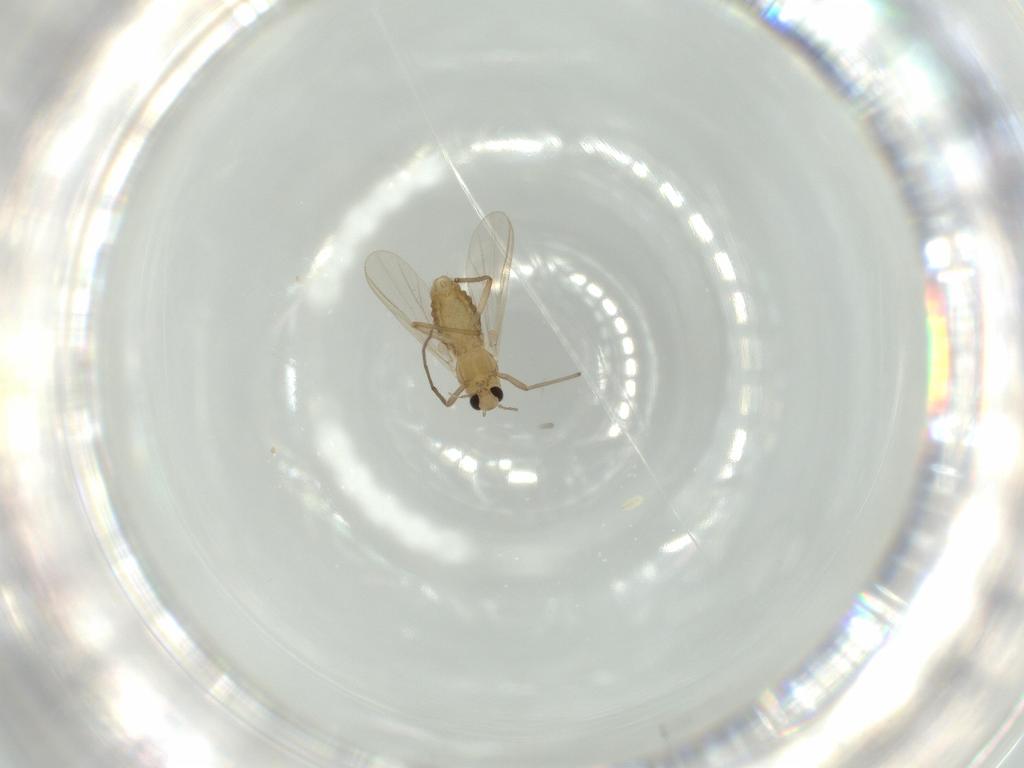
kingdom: Animalia
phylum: Arthropoda
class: Insecta
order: Diptera
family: Chironomidae
